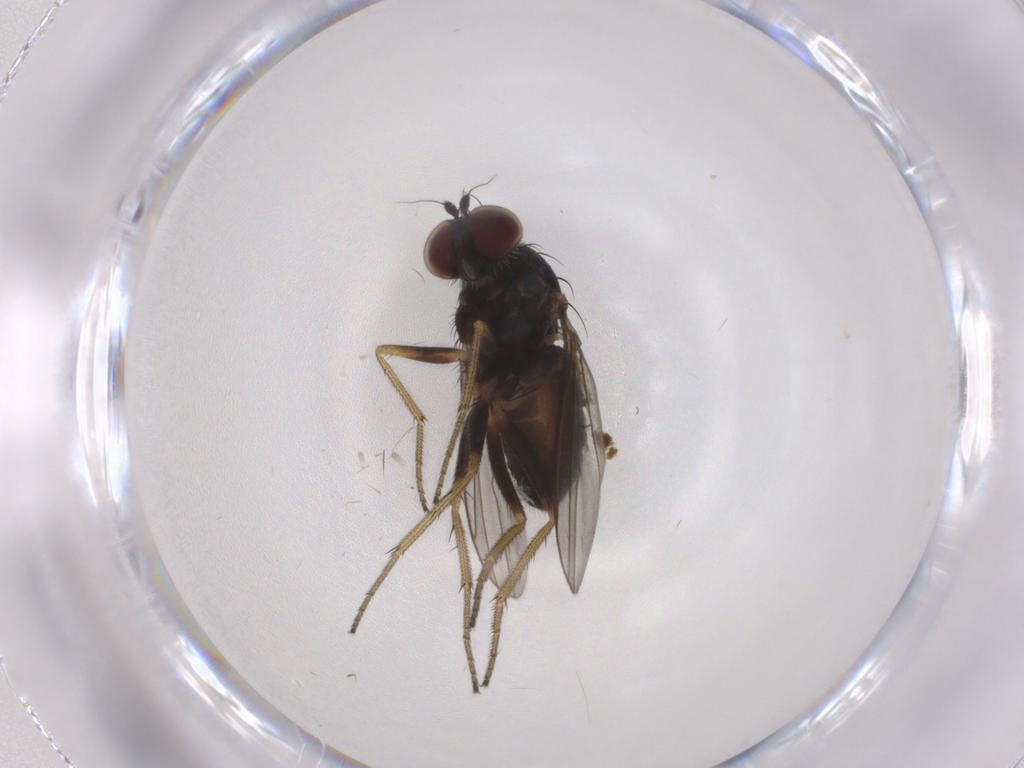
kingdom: Animalia
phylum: Arthropoda
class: Insecta
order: Diptera
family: Dolichopodidae
